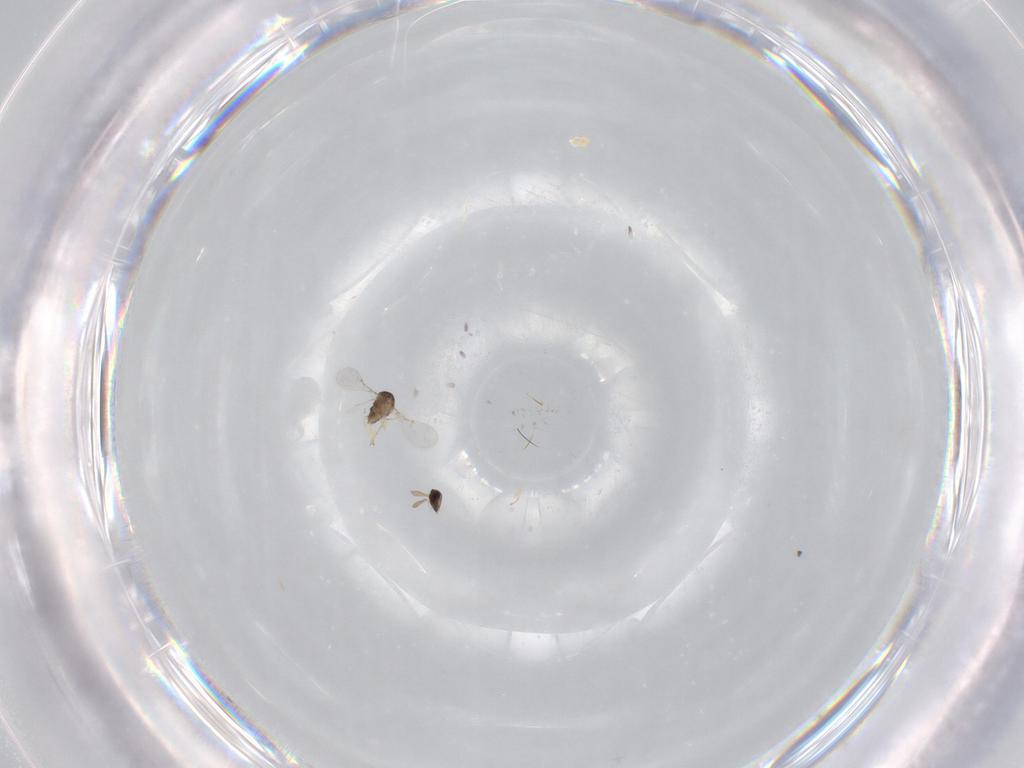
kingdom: Animalia
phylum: Arthropoda
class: Insecta
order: Hymenoptera
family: Encyrtidae
